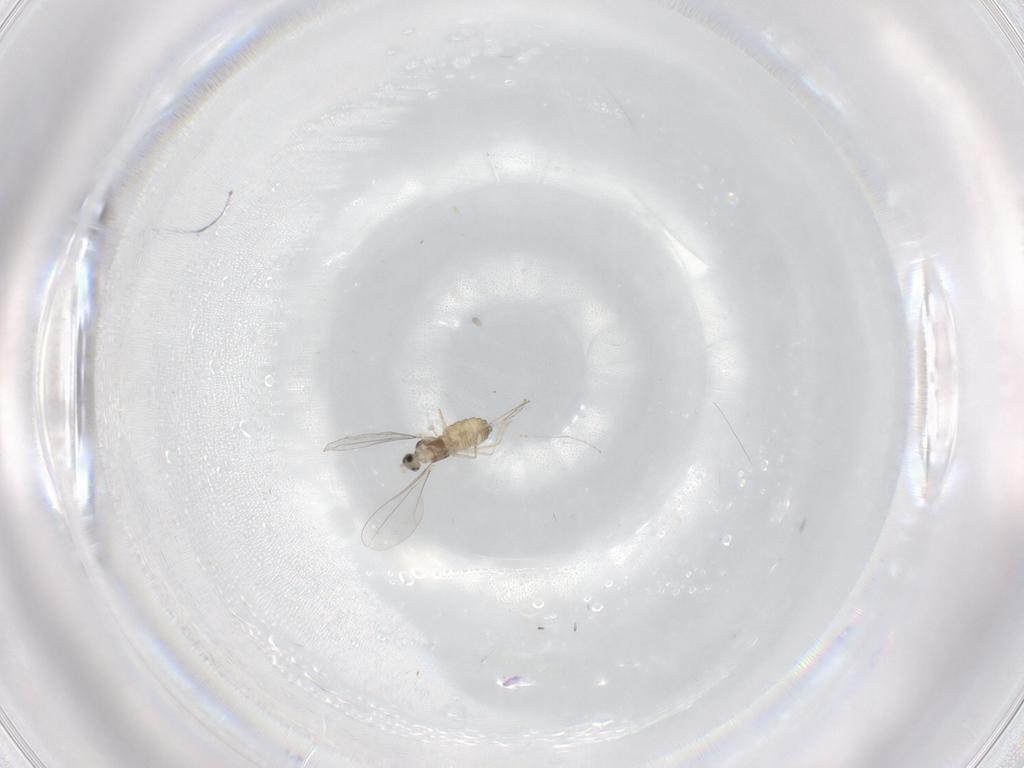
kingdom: Animalia
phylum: Arthropoda
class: Insecta
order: Diptera
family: Cecidomyiidae
